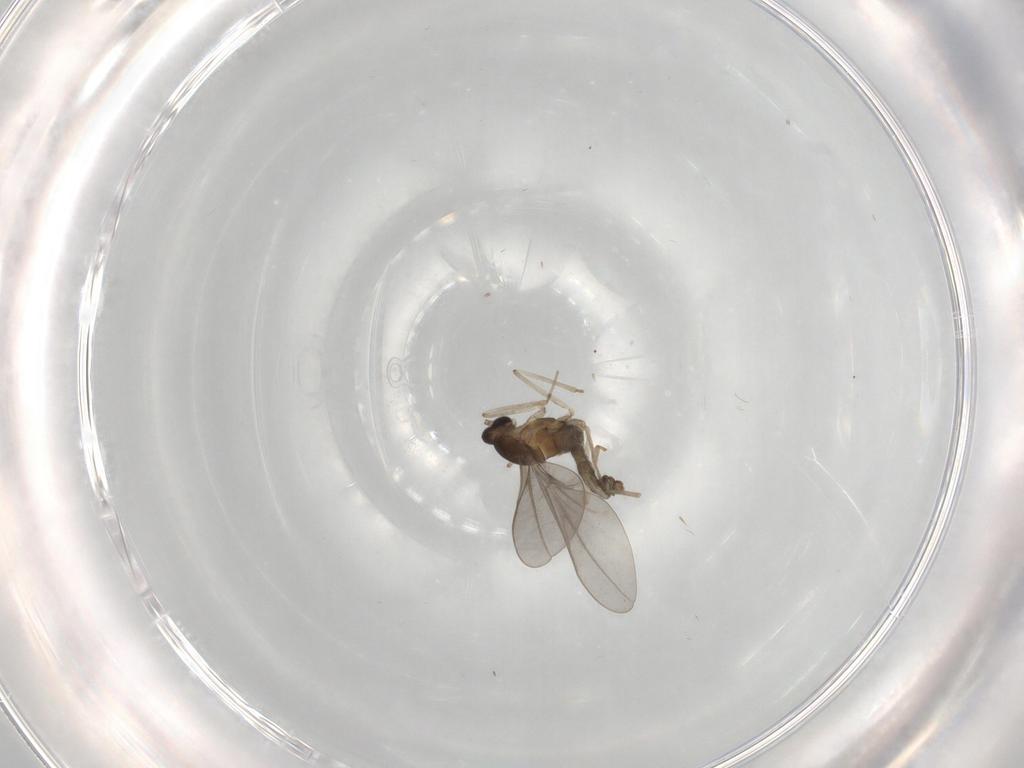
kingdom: Animalia
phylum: Arthropoda
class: Insecta
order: Diptera
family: Cecidomyiidae
